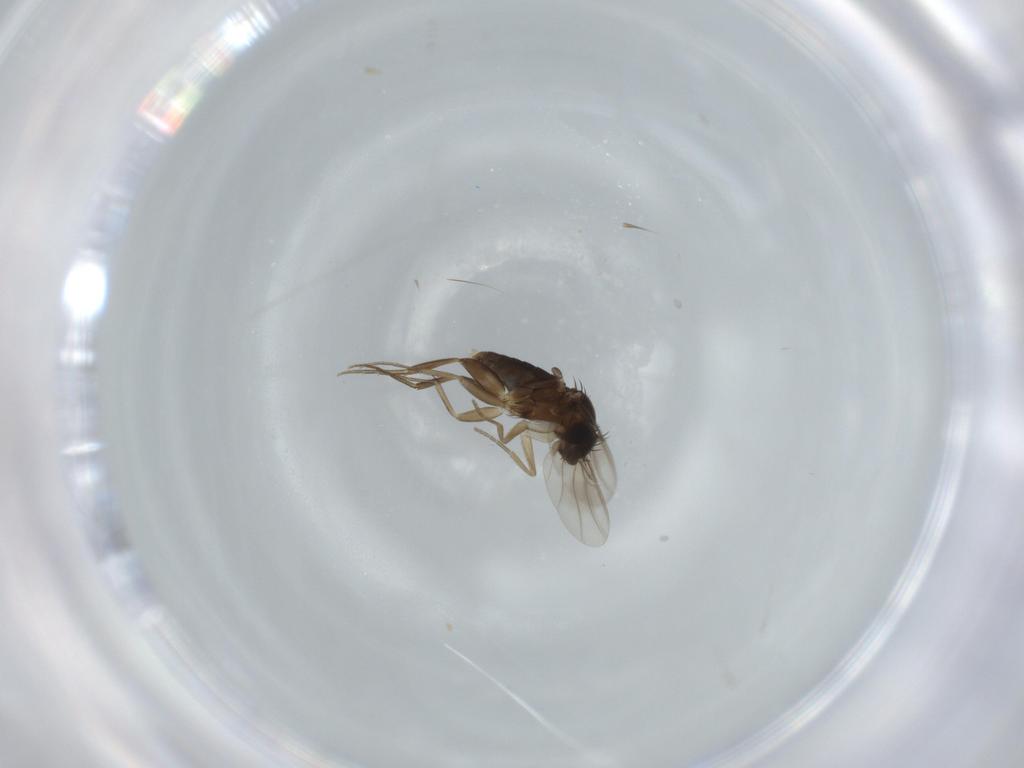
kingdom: Animalia
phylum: Arthropoda
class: Insecta
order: Diptera
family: Phoridae
